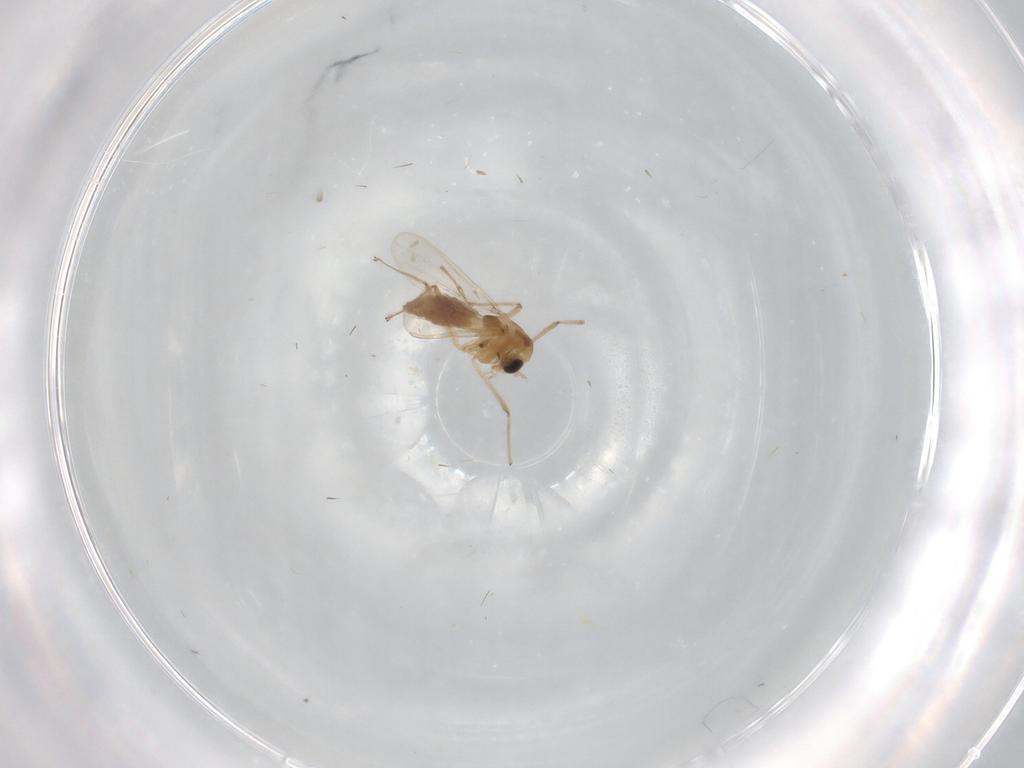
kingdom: Animalia
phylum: Arthropoda
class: Insecta
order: Diptera
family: Chironomidae
